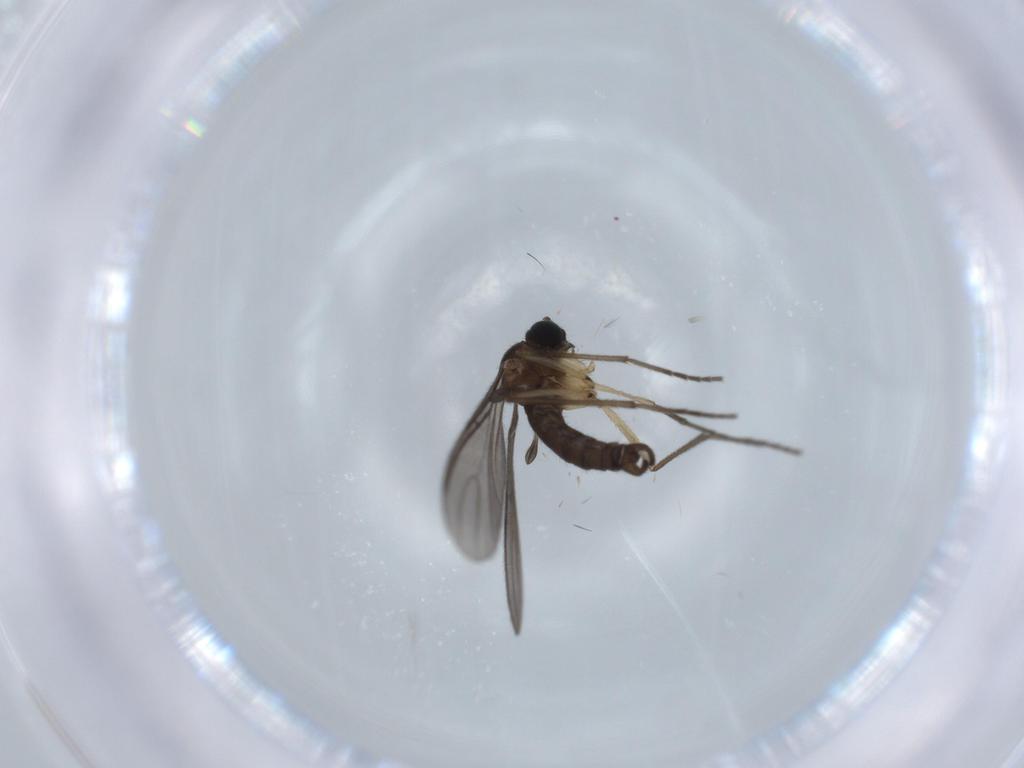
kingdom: Animalia
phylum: Arthropoda
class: Insecta
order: Diptera
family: Sciaridae
